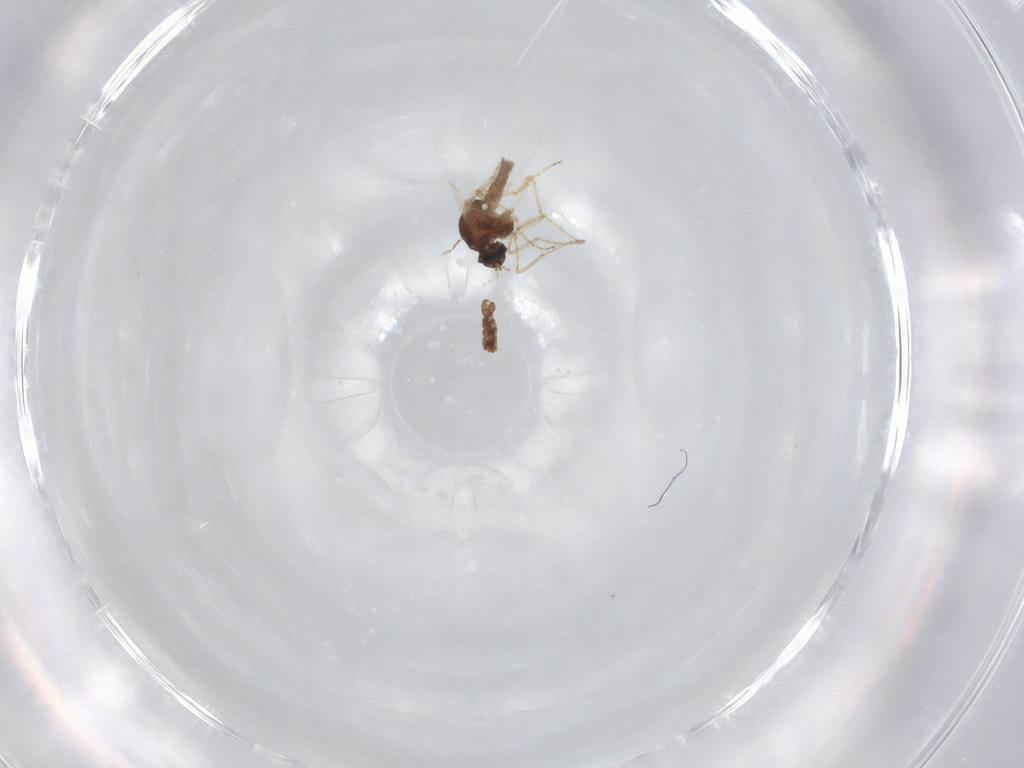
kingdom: Animalia
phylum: Arthropoda
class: Insecta
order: Diptera
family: Ceratopogonidae
